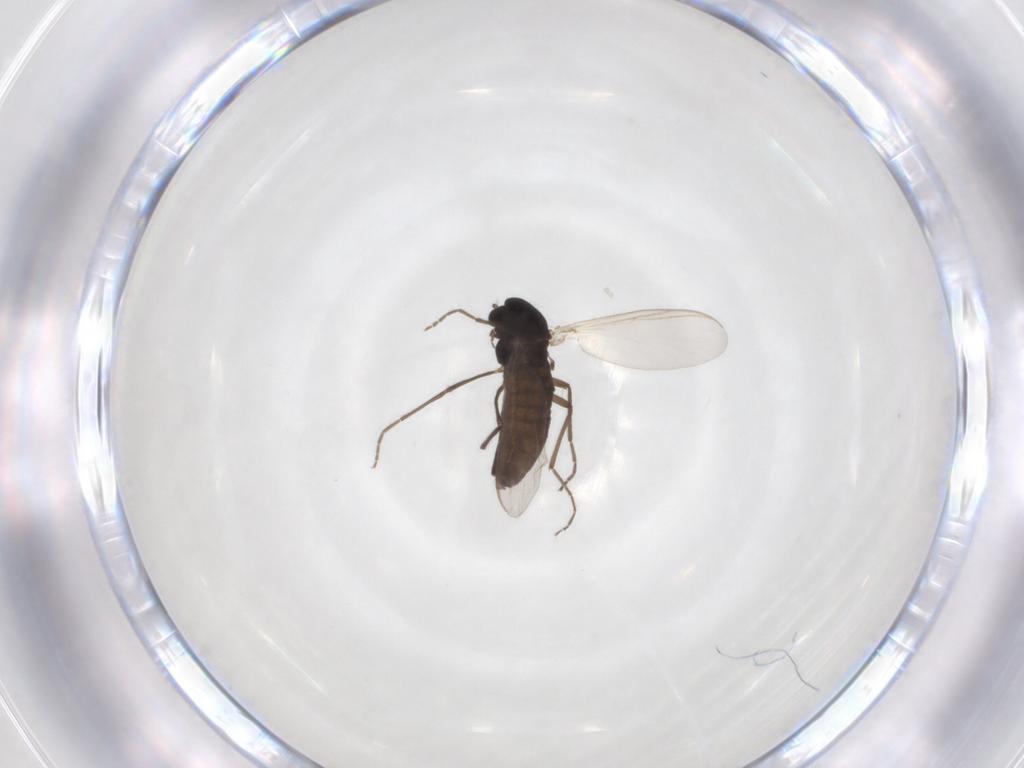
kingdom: Animalia
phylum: Arthropoda
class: Insecta
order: Diptera
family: Chironomidae
